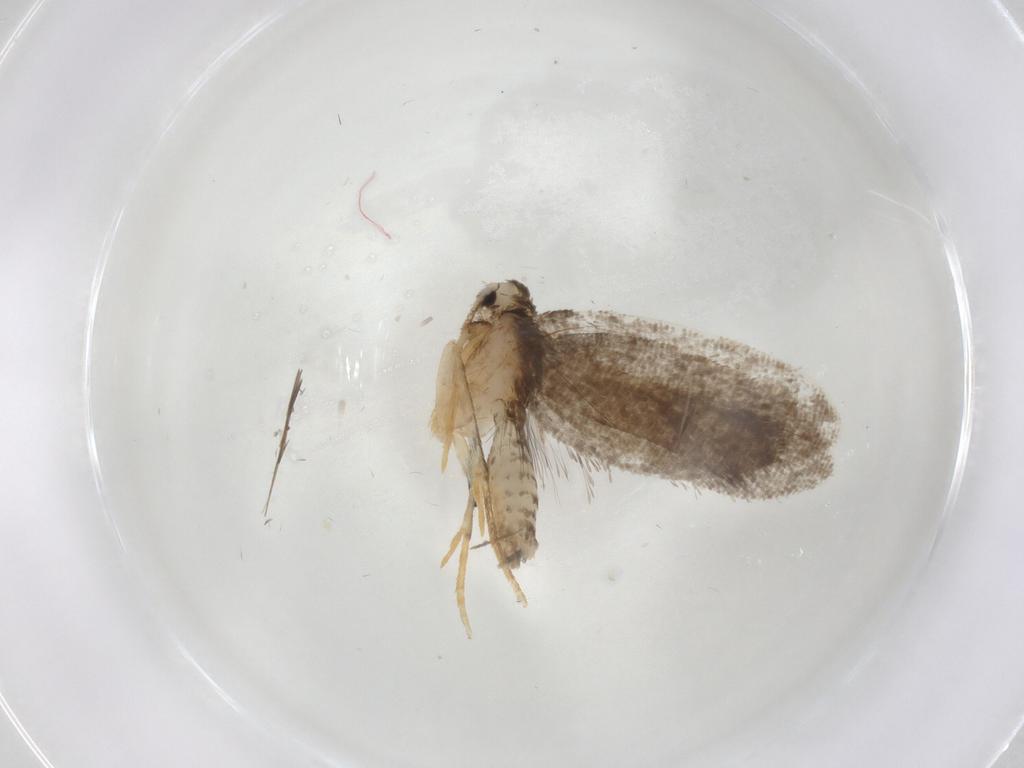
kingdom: Animalia
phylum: Arthropoda
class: Insecta
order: Lepidoptera
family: Psychidae
